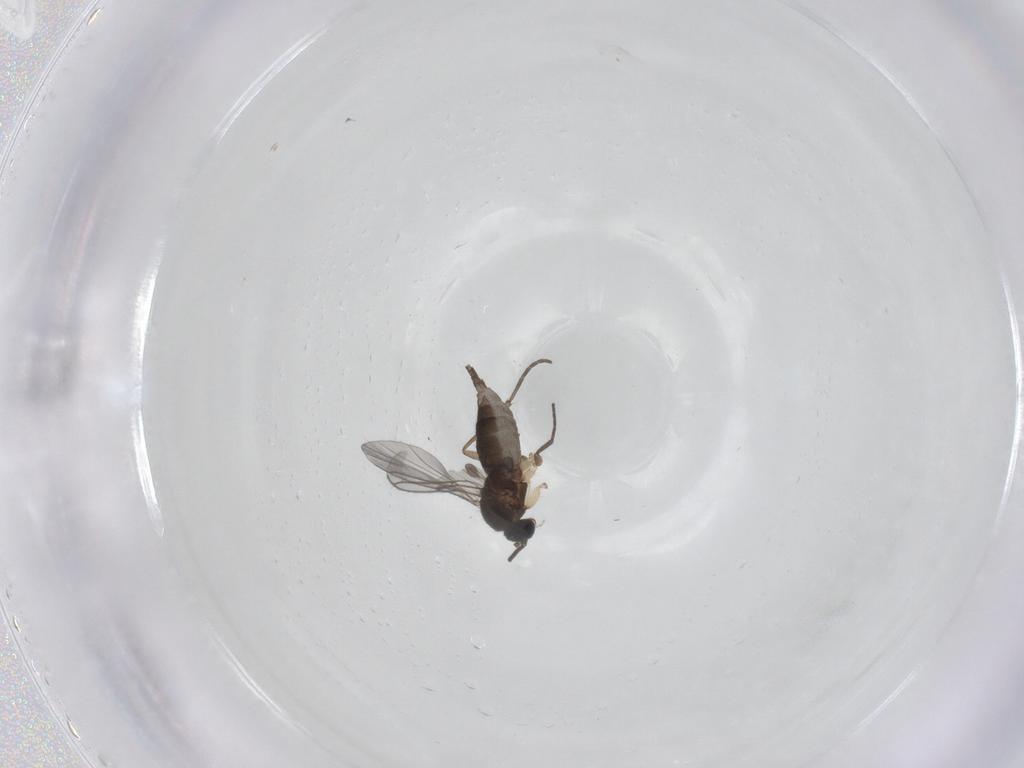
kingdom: Animalia
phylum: Arthropoda
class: Insecta
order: Diptera
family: Sciaridae
